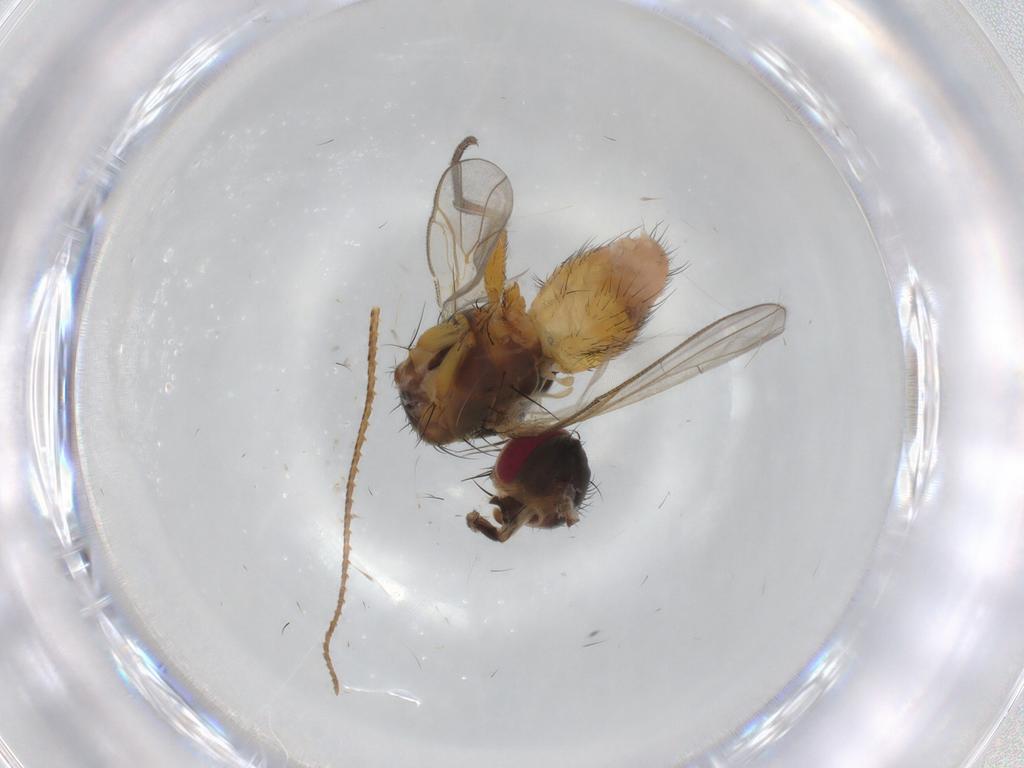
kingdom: Animalia
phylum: Arthropoda
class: Insecta
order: Diptera
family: Muscidae
